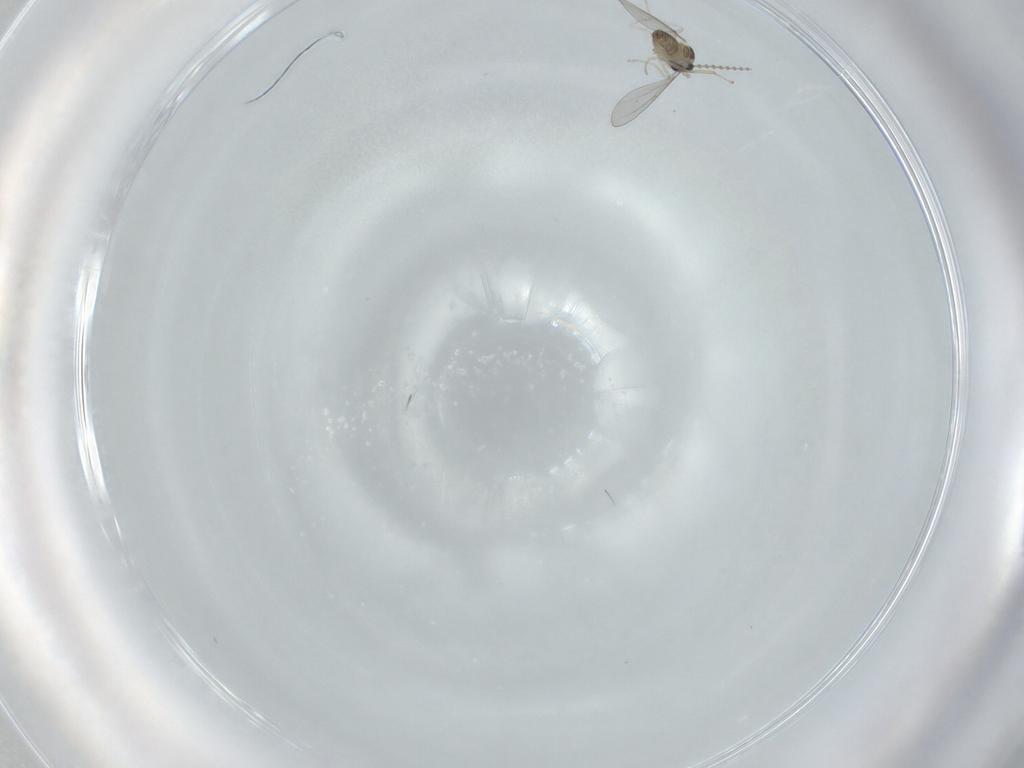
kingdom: Animalia
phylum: Arthropoda
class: Insecta
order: Diptera
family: Cecidomyiidae
